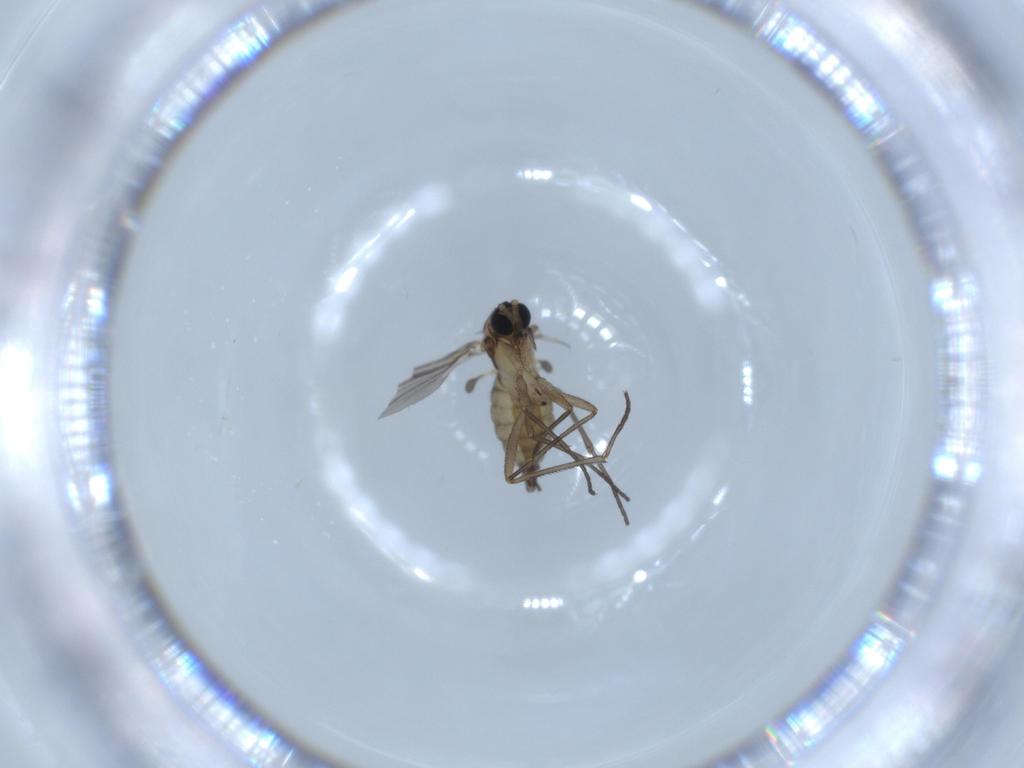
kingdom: Animalia
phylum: Arthropoda
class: Insecta
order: Diptera
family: Sciaridae
